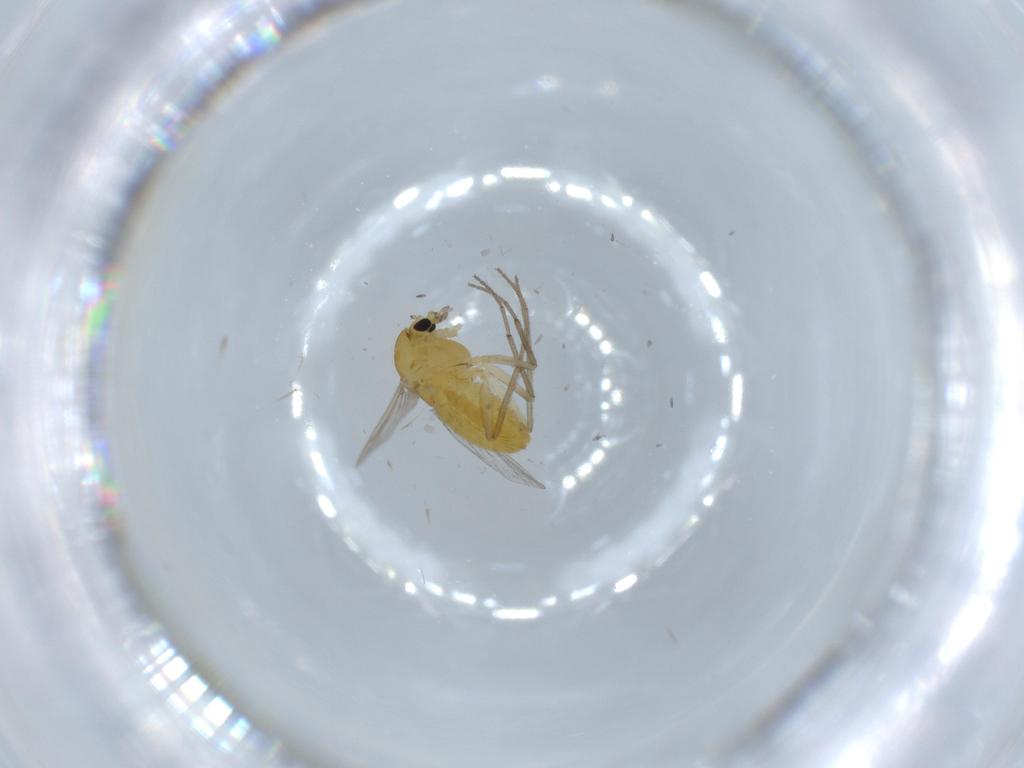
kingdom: Animalia
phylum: Arthropoda
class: Insecta
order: Diptera
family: Chironomidae
